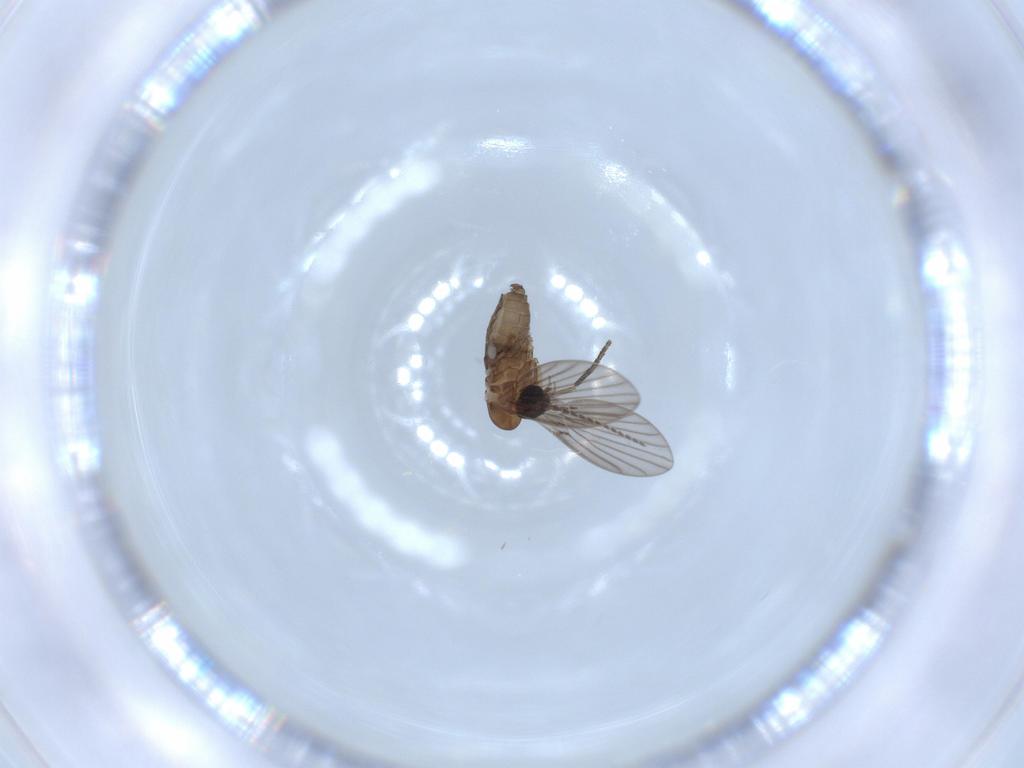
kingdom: Animalia
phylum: Arthropoda
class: Insecta
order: Diptera
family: Psychodidae
